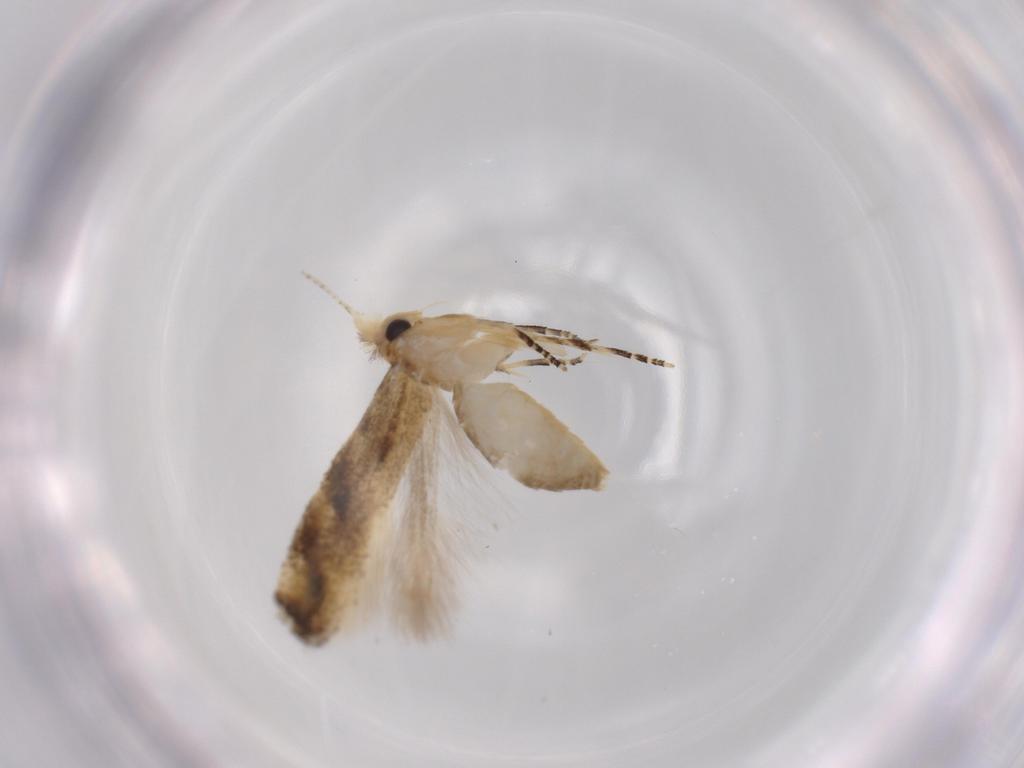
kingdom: Animalia
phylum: Arthropoda
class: Insecta
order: Lepidoptera
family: Bucculatricidae
